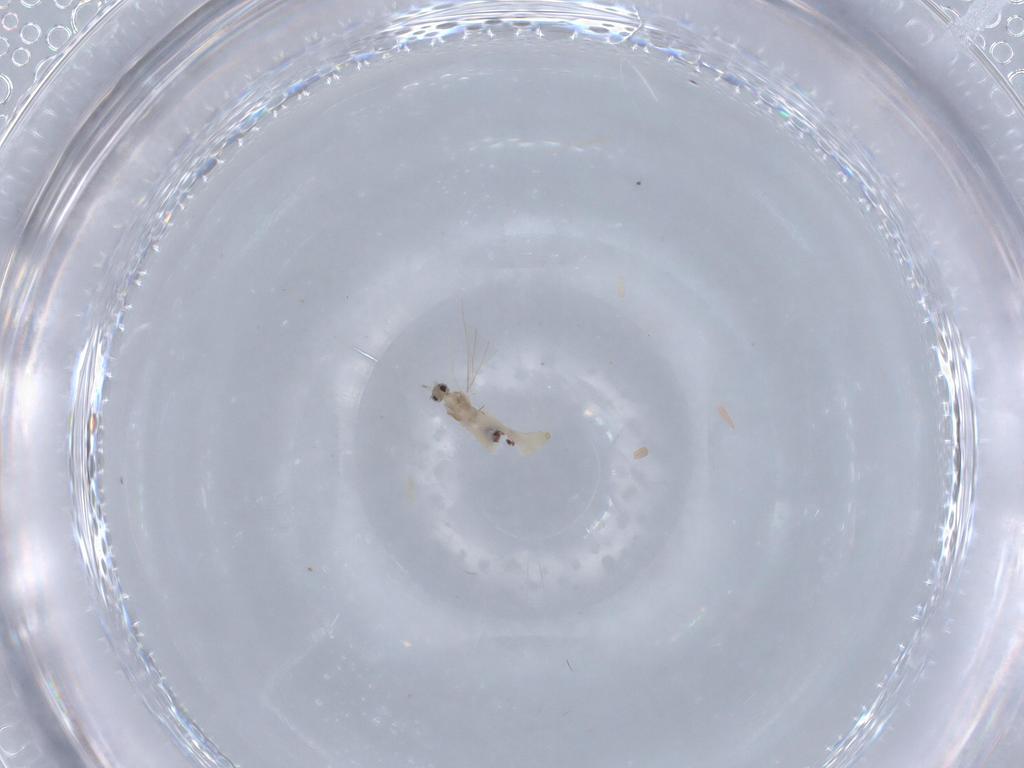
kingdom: Animalia
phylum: Arthropoda
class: Insecta
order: Diptera
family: Cecidomyiidae
